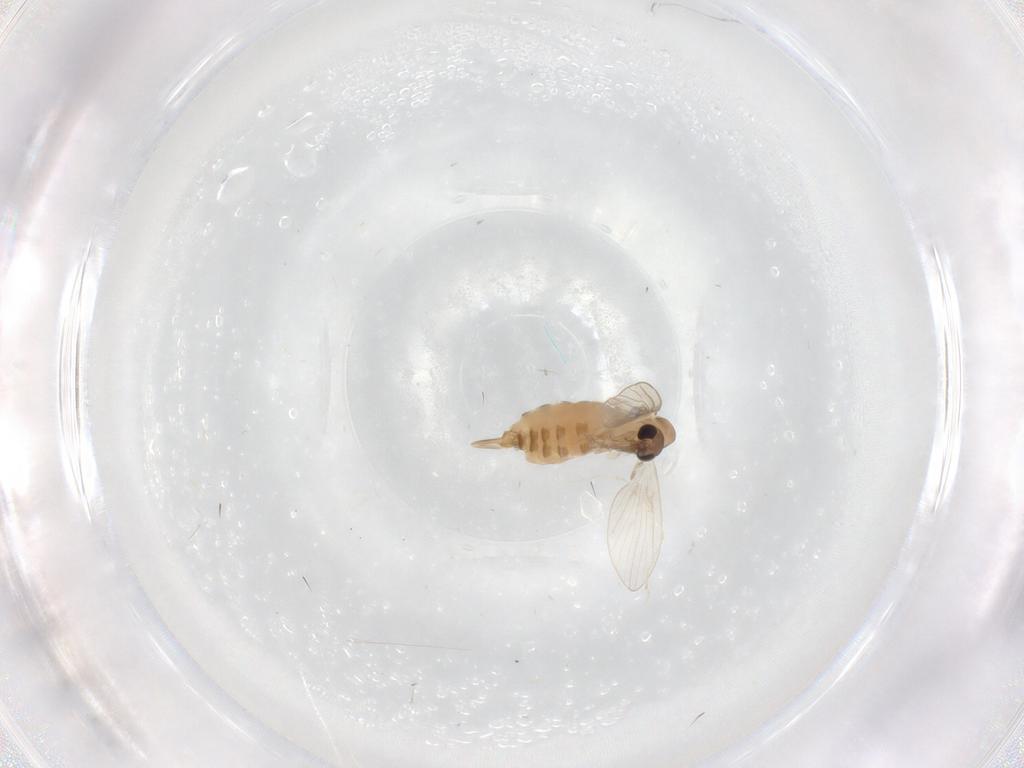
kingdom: Animalia
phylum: Arthropoda
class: Insecta
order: Diptera
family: Psychodidae
